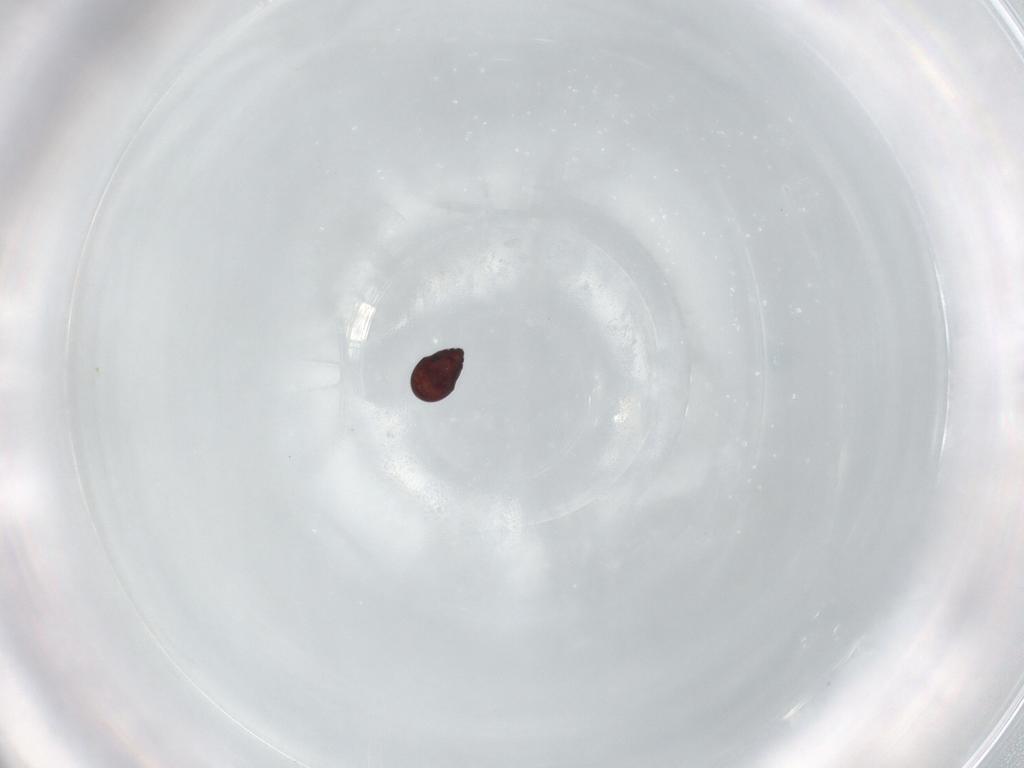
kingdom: Animalia
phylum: Arthropoda
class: Arachnida
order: Sarcoptiformes
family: Punctoribatidae
